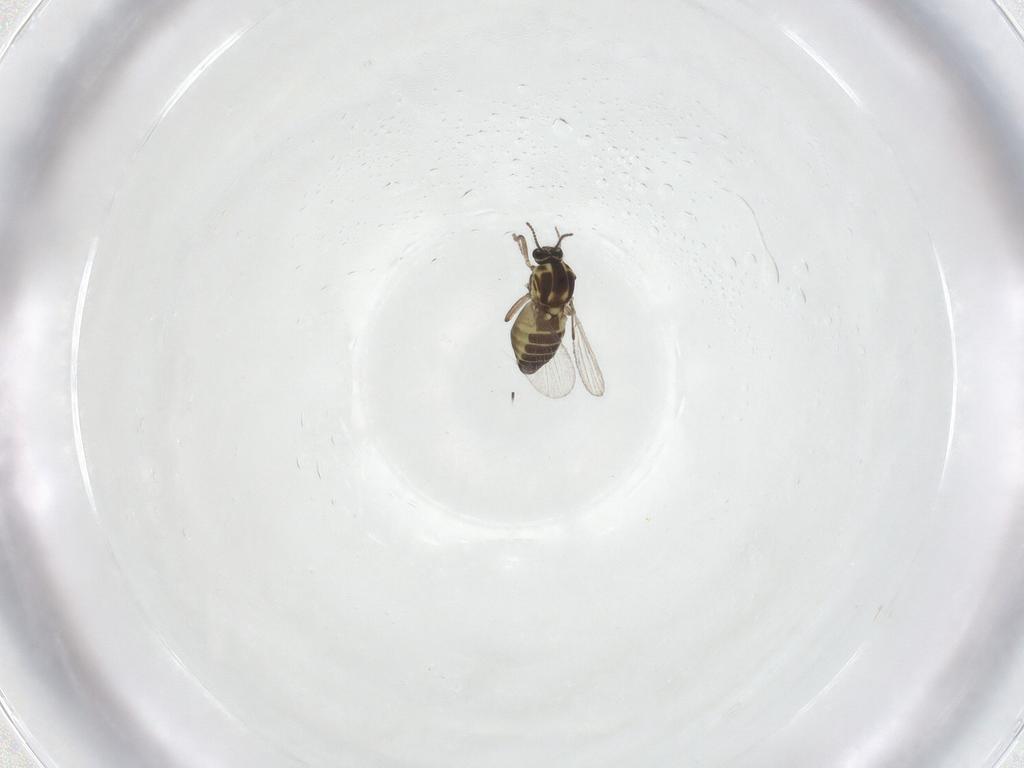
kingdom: Animalia
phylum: Arthropoda
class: Insecta
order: Diptera
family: Ceratopogonidae
